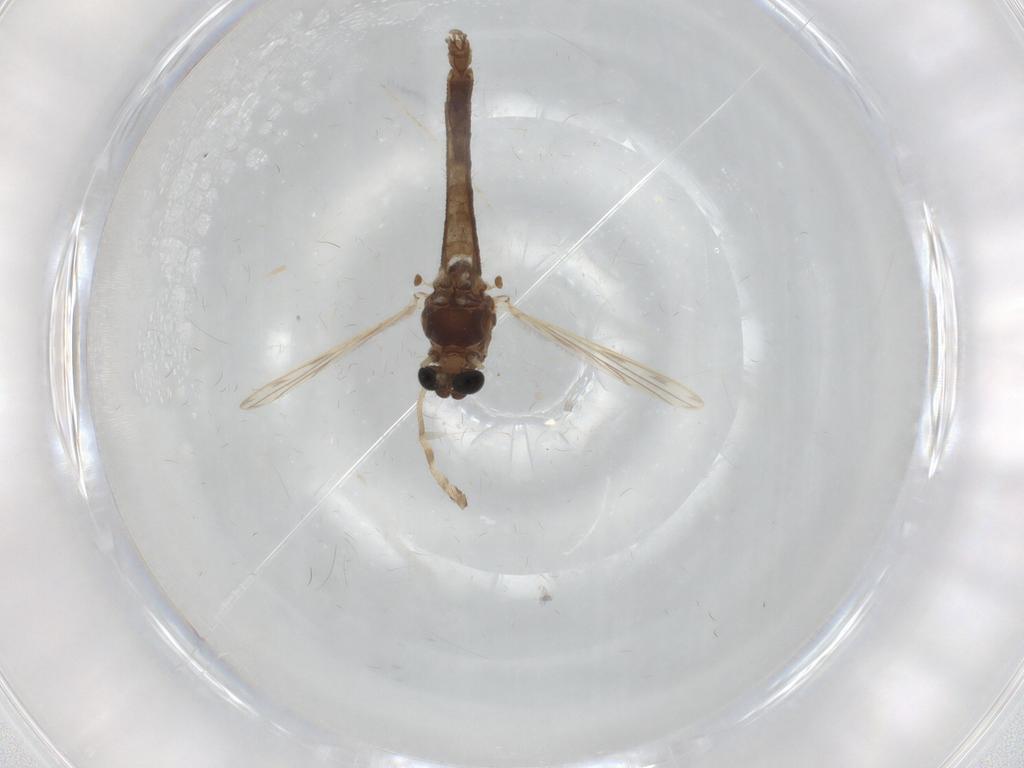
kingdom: Animalia
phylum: Arthropoda
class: Insecta
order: Diptera
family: Chironomidae
